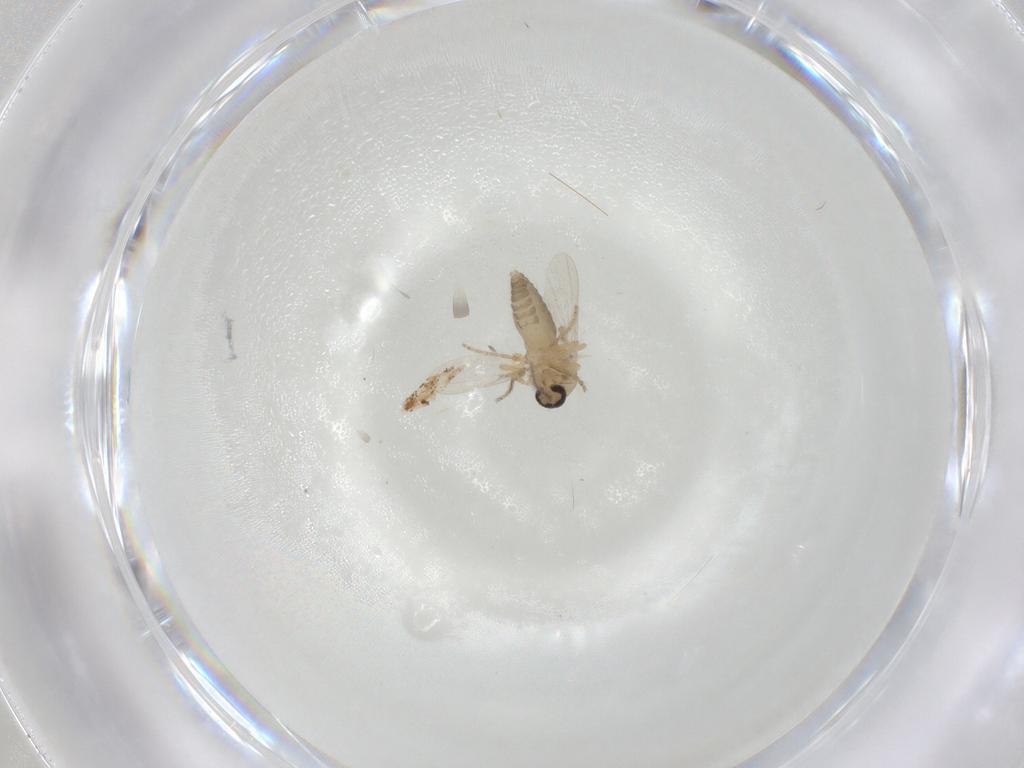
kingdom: Animalia
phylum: Arthropoda
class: Insecta
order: Diptera
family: Ceratopogonidae
